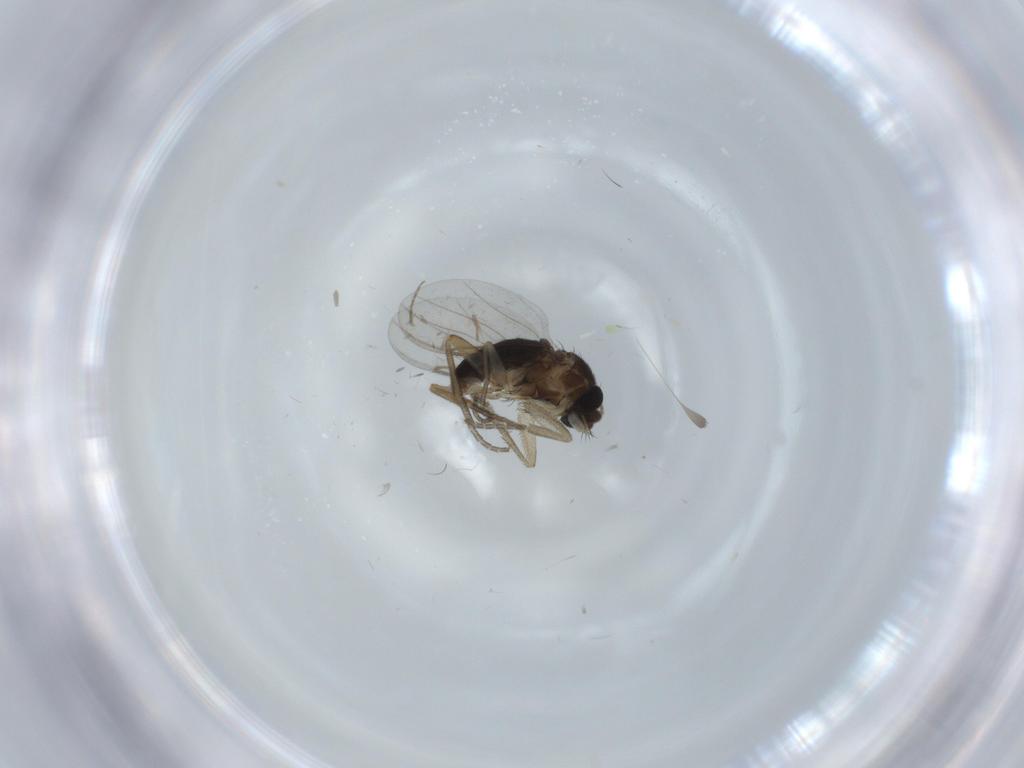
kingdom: Animalia
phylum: Arthropoda
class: Insecta
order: Diptera
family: Phoridae
